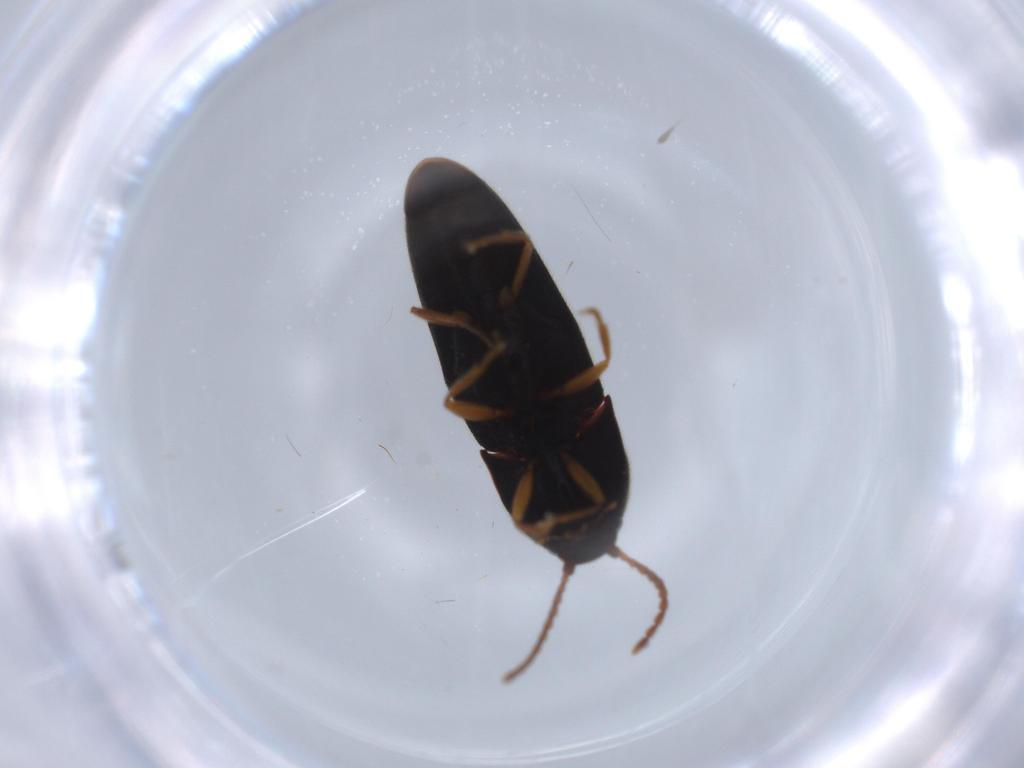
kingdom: Animalia
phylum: Arthropoda
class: Insecta
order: Coleoptera
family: Elateridae
